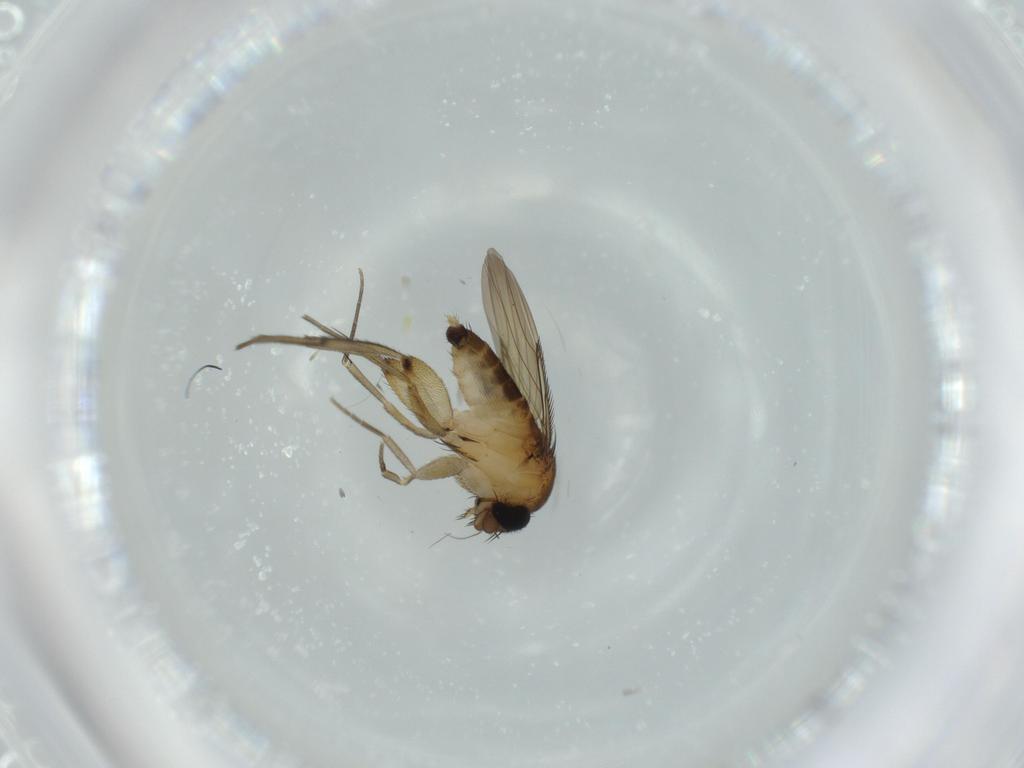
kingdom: Animalia
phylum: Arthropoda
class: Insecta
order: Diptera
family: Phoridae
